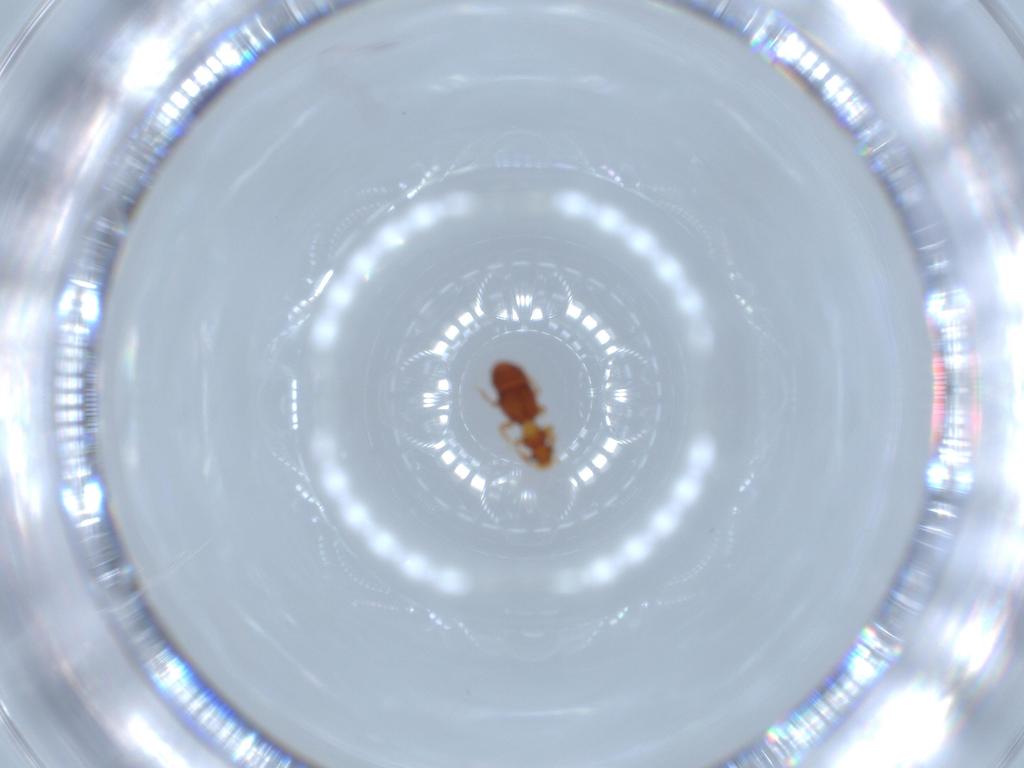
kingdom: Animalia
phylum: Arthropoda
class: Insecta
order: Coleoptera
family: Staphylinidae
